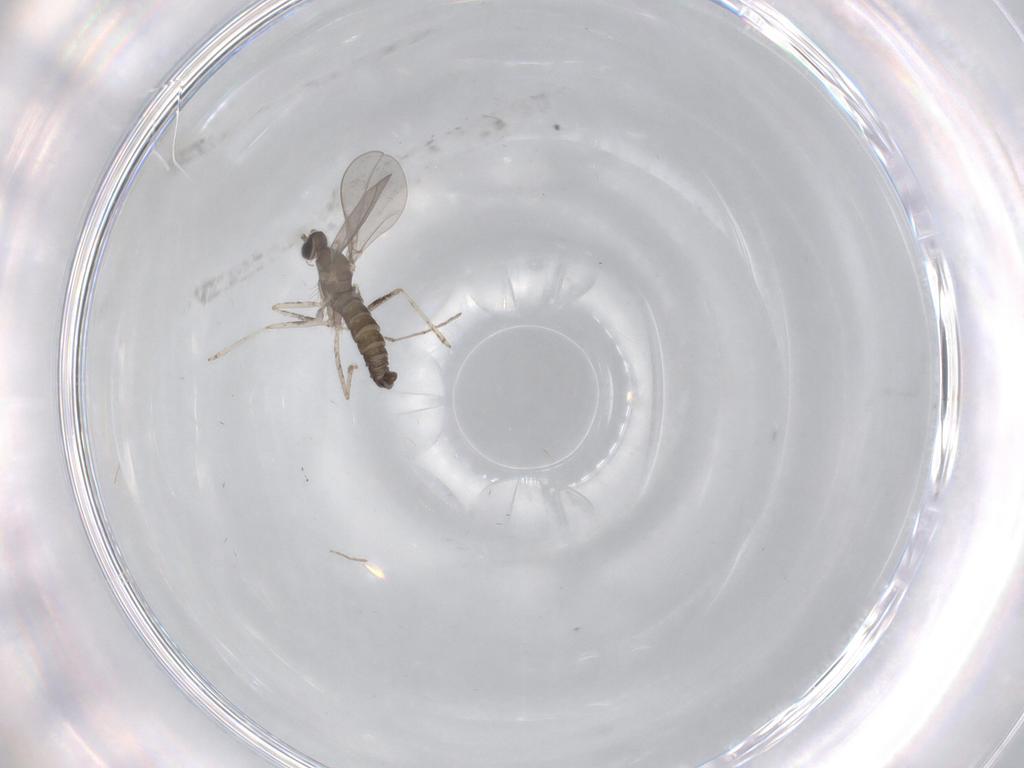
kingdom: Animalia
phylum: Arthropoda
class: Insecta
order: Diptera
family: Cecidomyiidae
